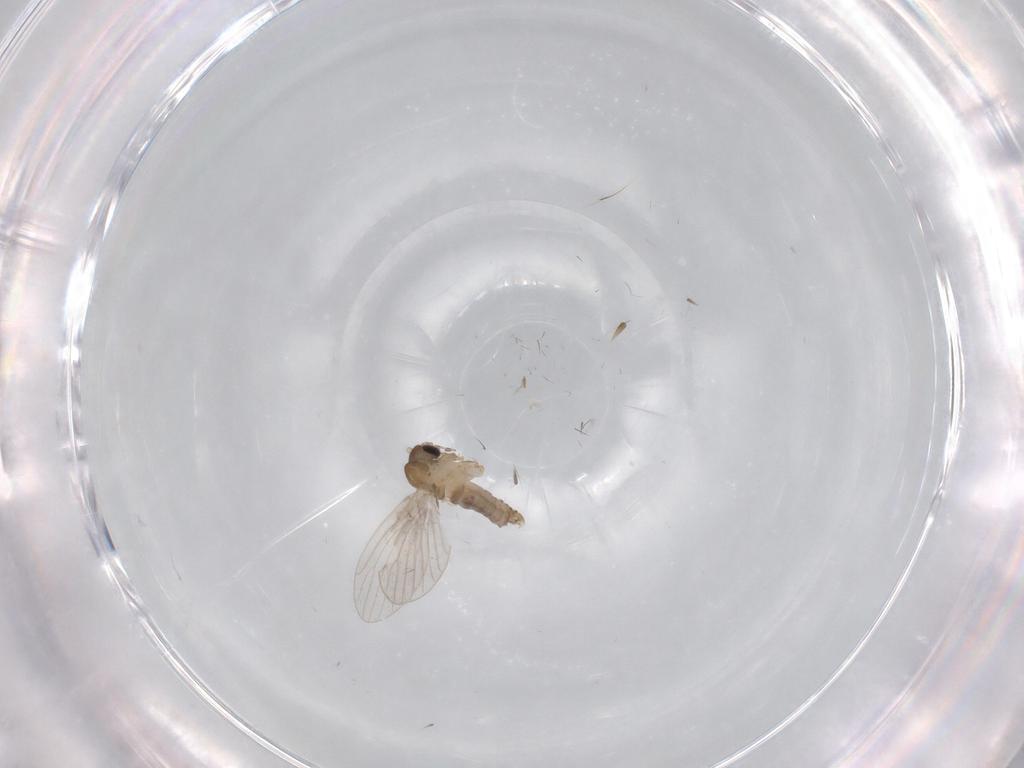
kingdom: Animalia
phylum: Arthropoda
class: Insecta
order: Diptera
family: Psychodidae
